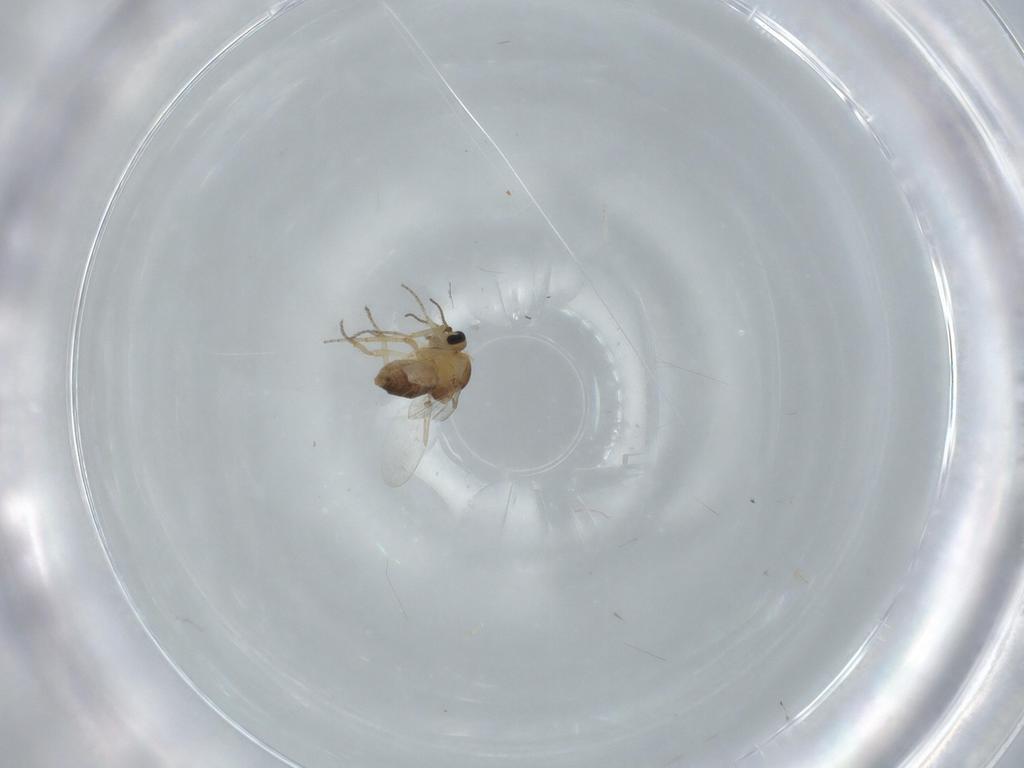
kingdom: Animalia
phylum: Arthropoda
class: Insecta
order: Diptera
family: Ceratopogonidae
